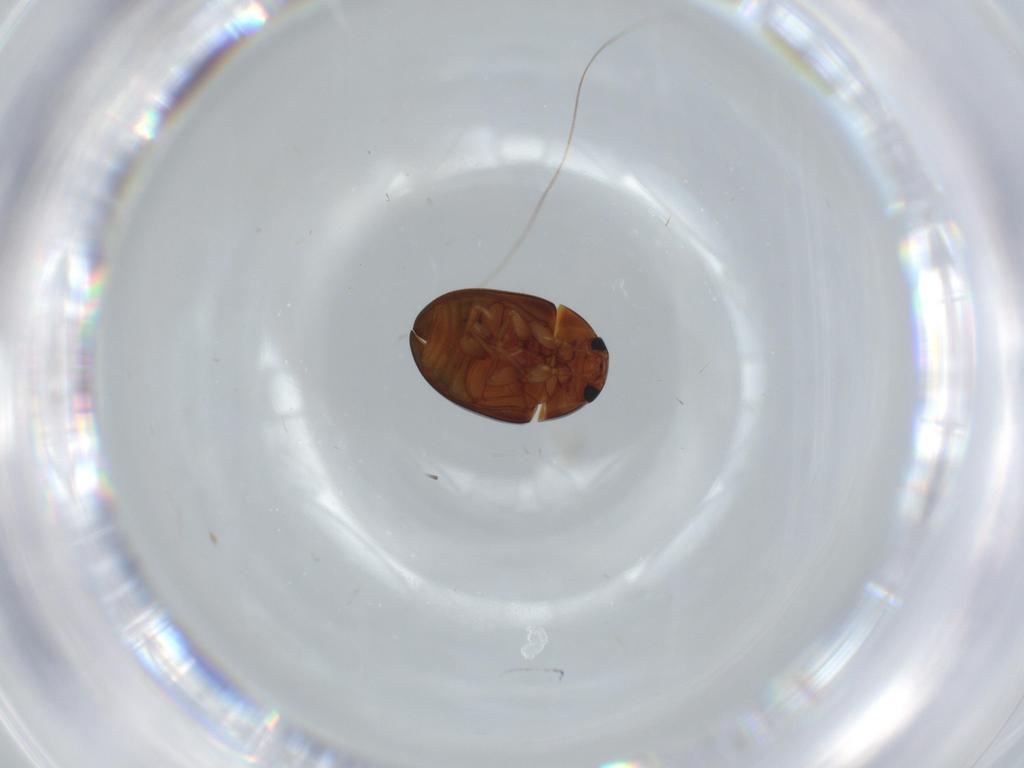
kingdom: Animalia
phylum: Arthropoda
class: Insecta
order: Coleoptera
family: Phalacridae
